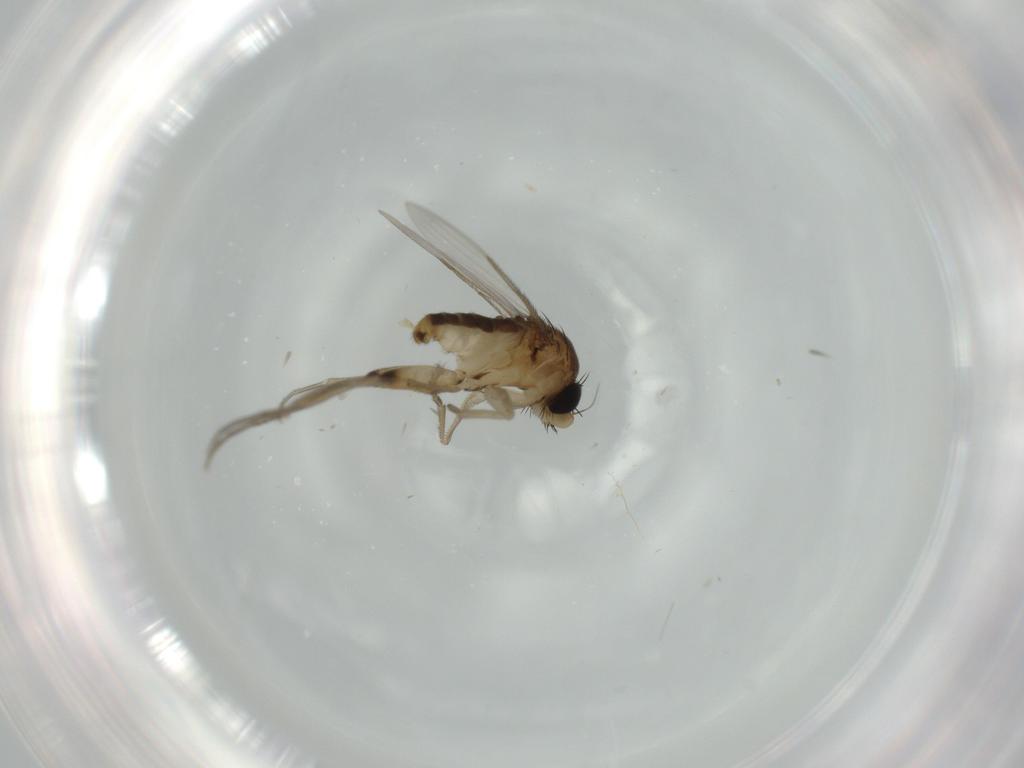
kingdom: Animalia
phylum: Arthropoda
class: Insecta
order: Diptera
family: Phoridae
